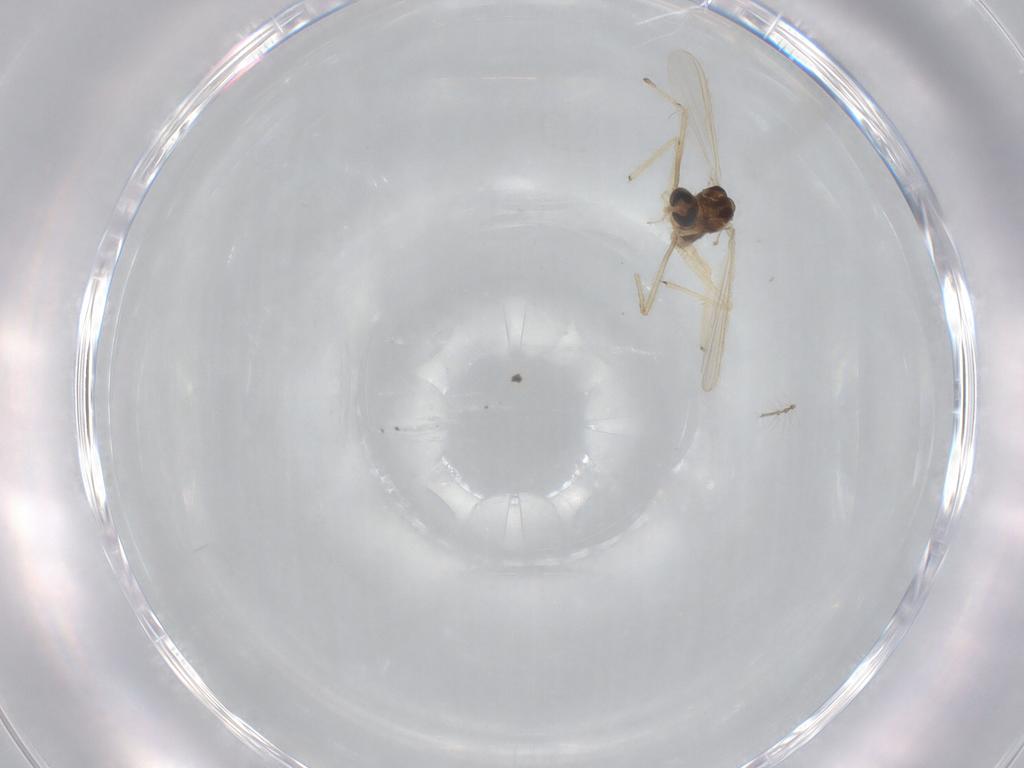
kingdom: Animalia
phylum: Arthropoda
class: Insecta
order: Diptera
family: Chironomidae
